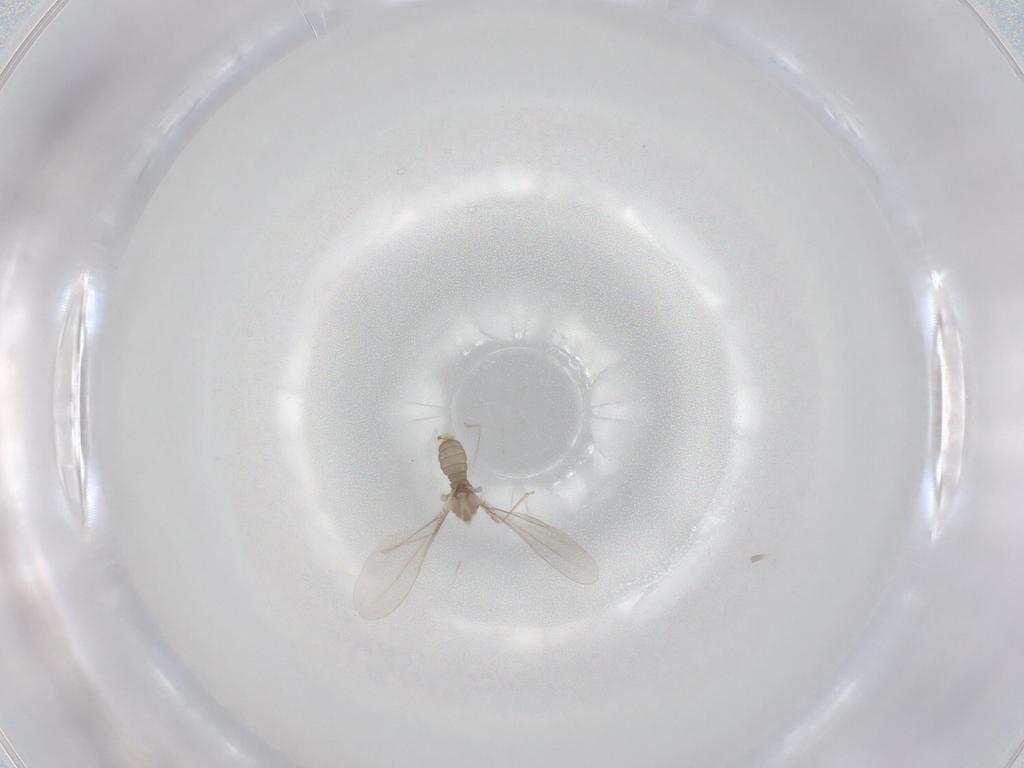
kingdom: Animalia
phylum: Arthropoda
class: Insecta
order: Diptera
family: Cecidomyiidae
